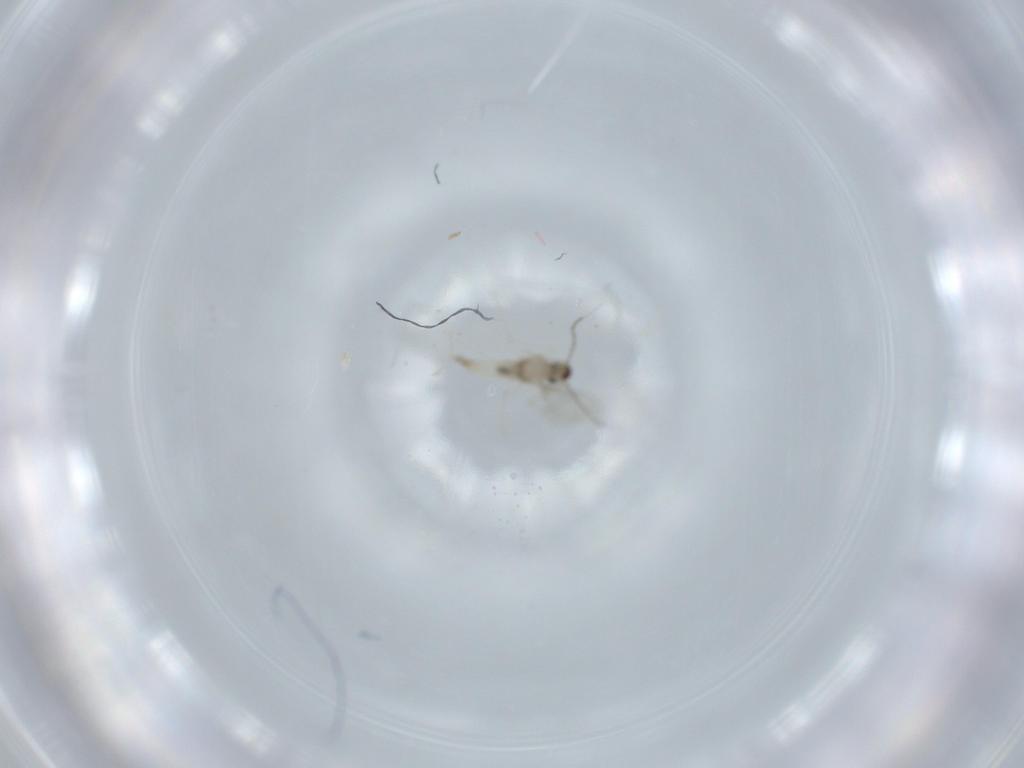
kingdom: Animalia
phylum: Arthropoda
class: Insecta
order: Diptera
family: Cecidomyiidae
